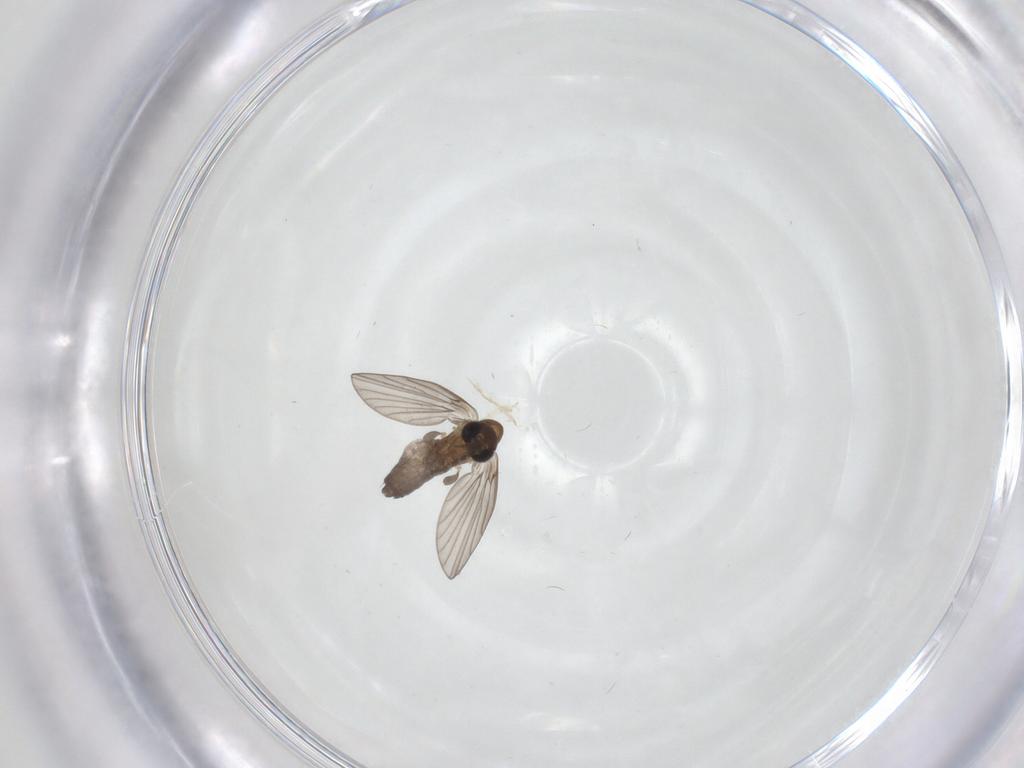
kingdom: Animalia
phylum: Arthropoda
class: Insecta
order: Diptera
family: Psychodidae
